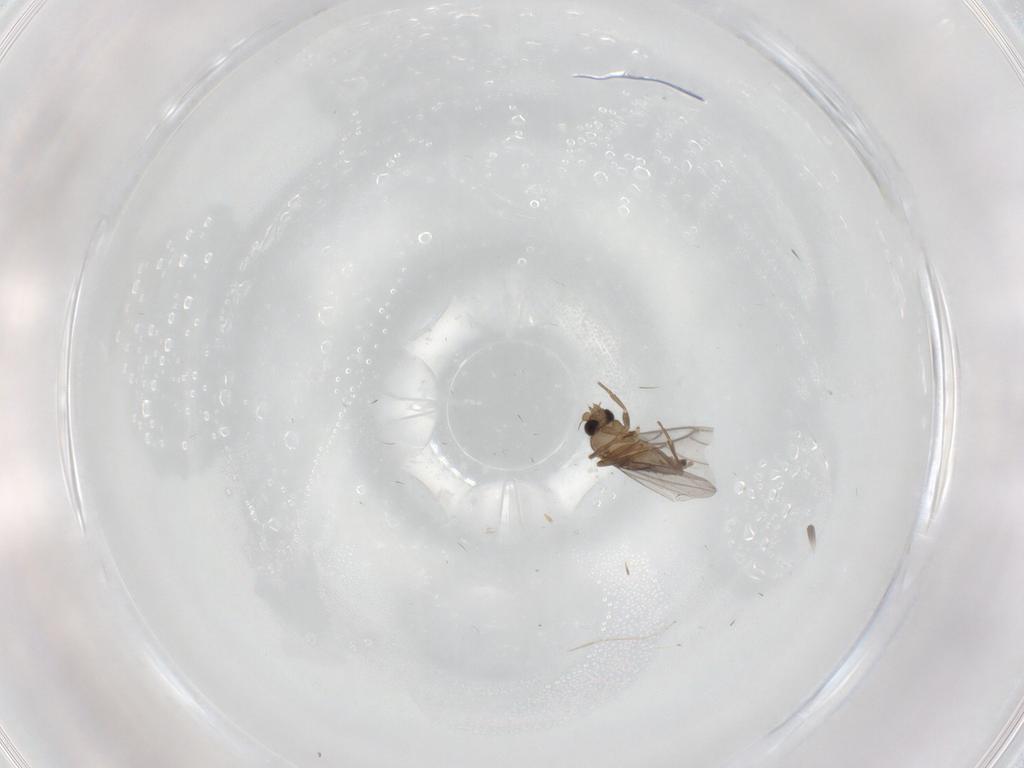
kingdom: Animalia
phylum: Arthropoda
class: Insecta
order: Diptera
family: Cecidomyiidae
